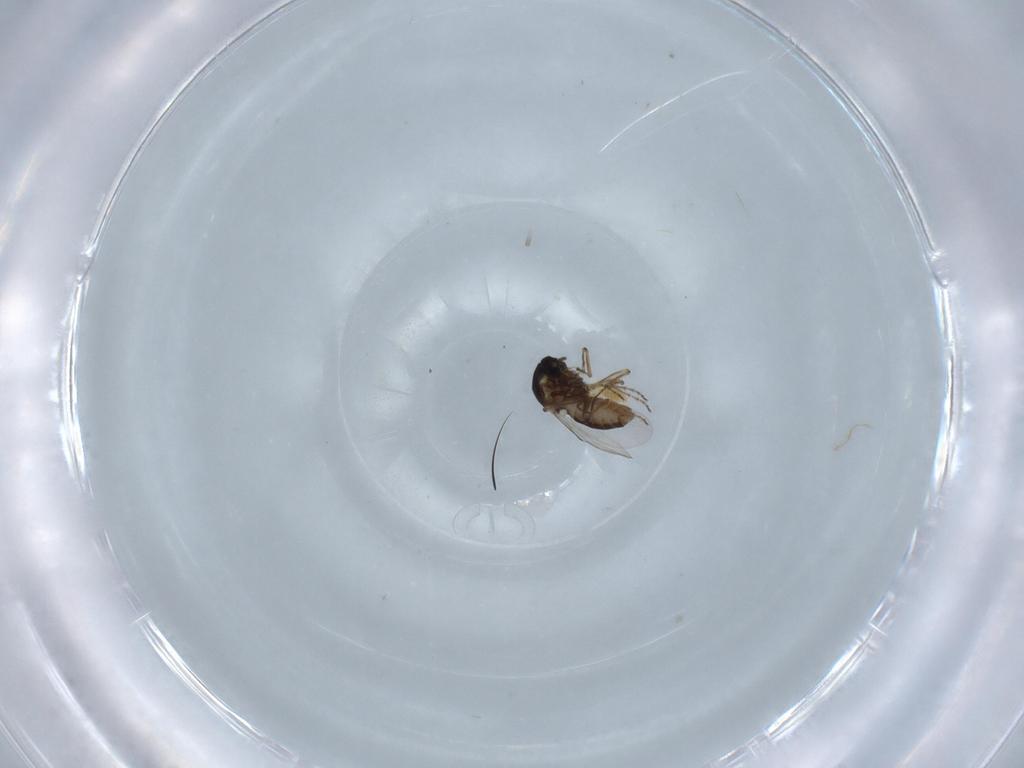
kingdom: Animalia
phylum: Arthropoda
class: Insecta
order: Diptera
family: Ceratopogonidae
